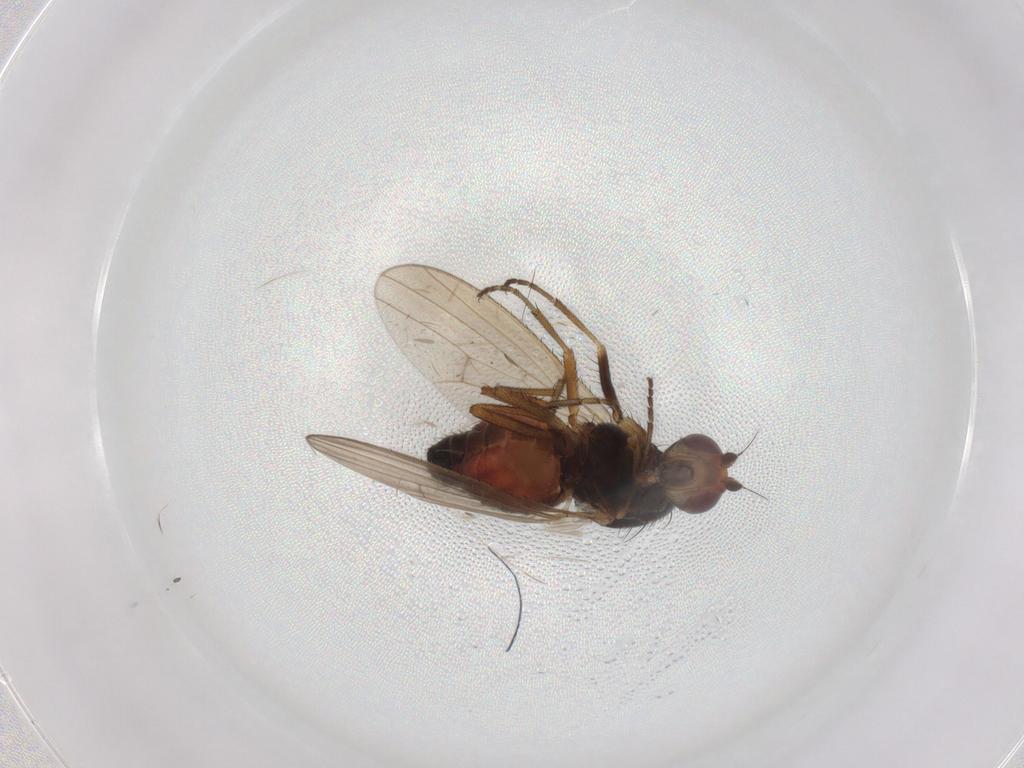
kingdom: Animalia
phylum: Arthropoda
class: Insecta
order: Diptera
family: Heleomyzidae
